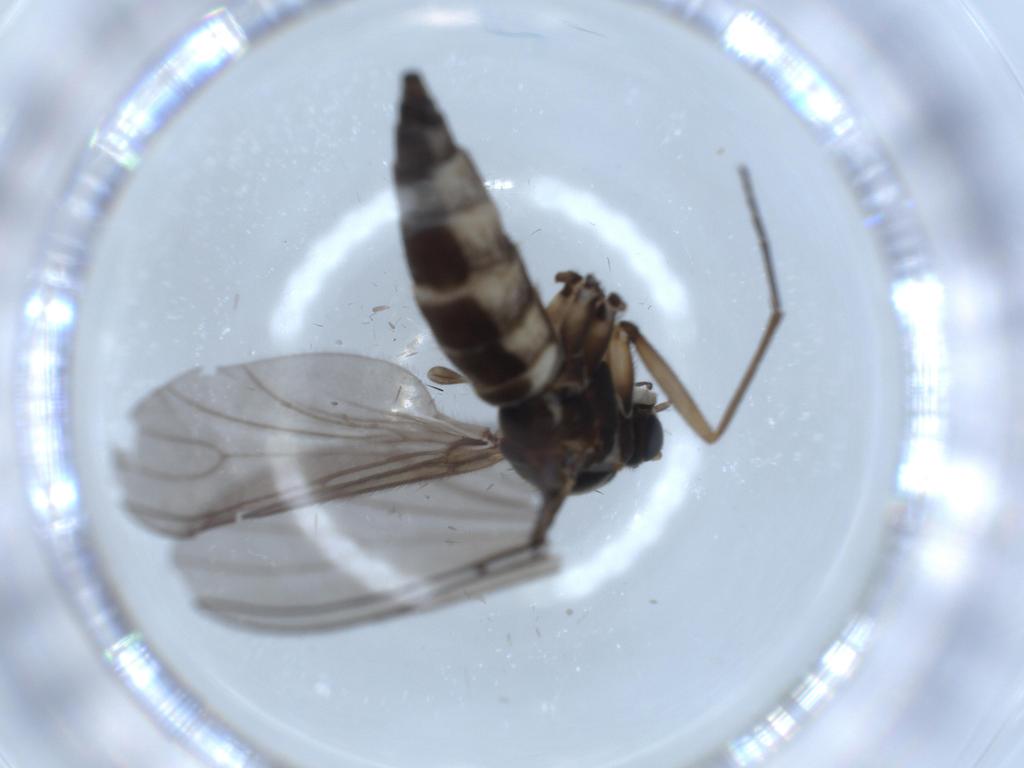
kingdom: Animalia
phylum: Arthropoda
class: Insecta
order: Diptera
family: Sciaridae
